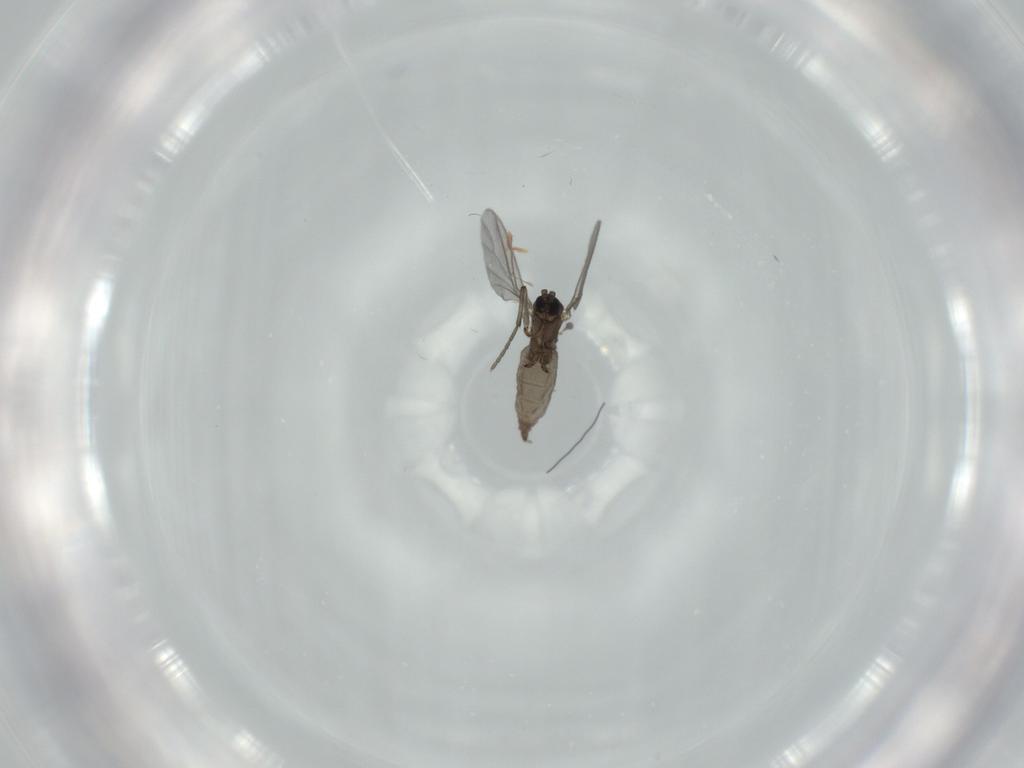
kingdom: Animalia
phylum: Arthropoda
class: Insecta
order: Diptera
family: Sciaridae
